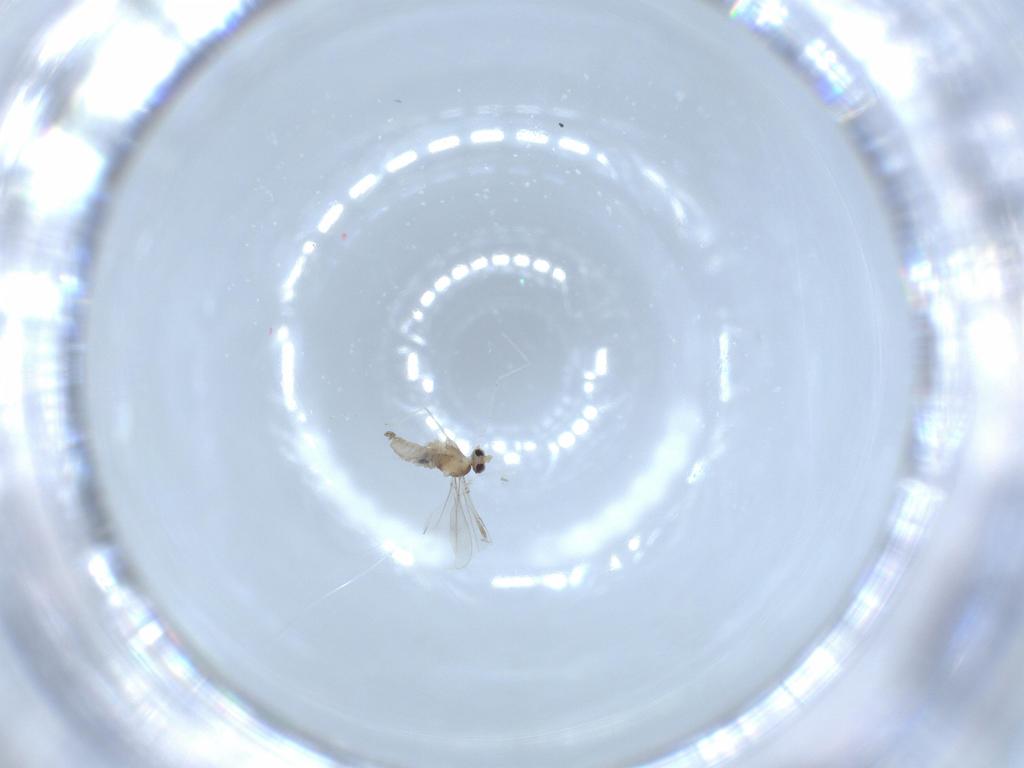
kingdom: Animalia
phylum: Arthropoda
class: Insecta
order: Diptera
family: Cecidomyiidae
